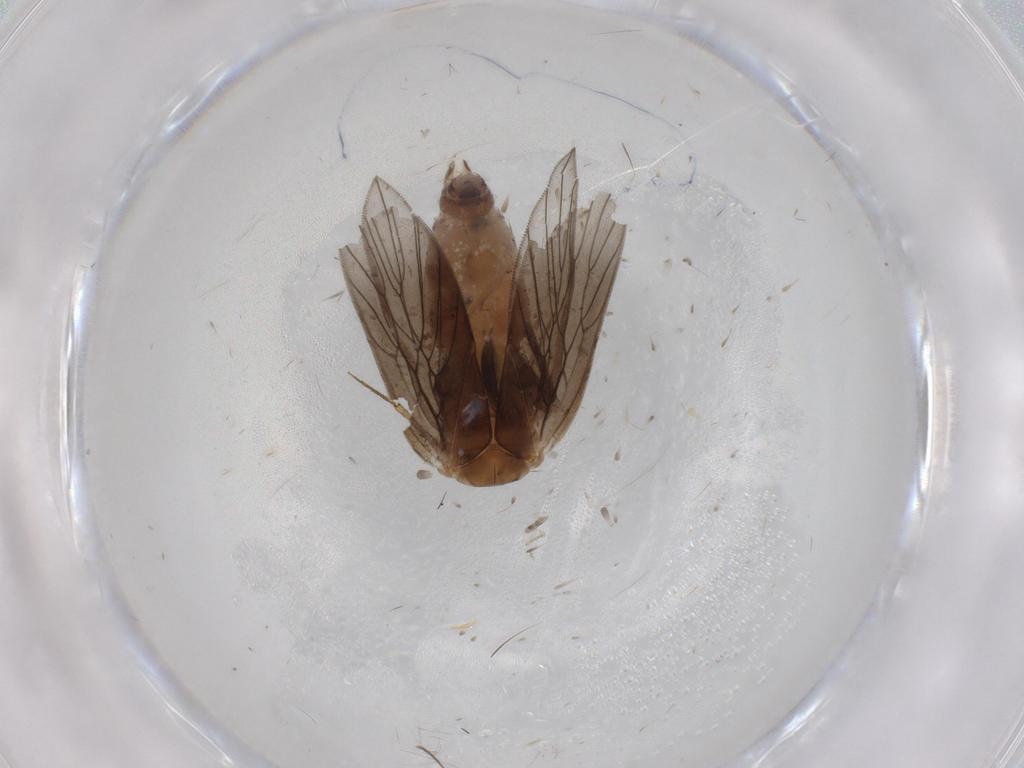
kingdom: Animalia
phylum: Arthropoda
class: Insecta
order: Psocodea
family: Lepidopsocidae
